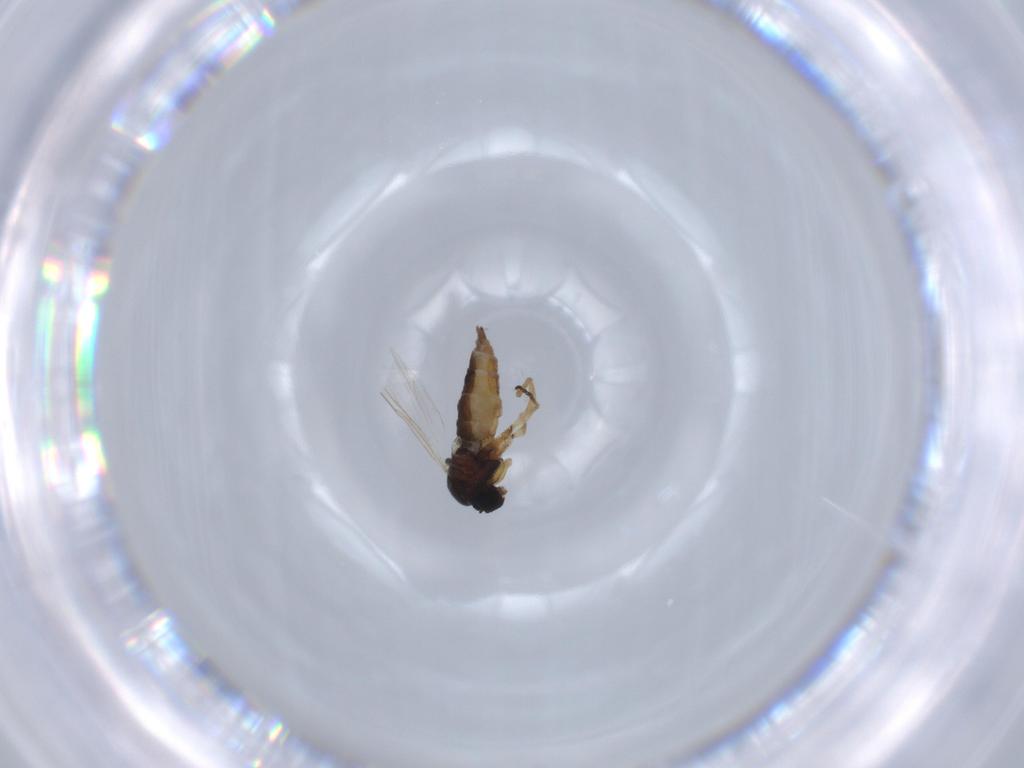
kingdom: Animalia
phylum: Arthropoda
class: Insecta
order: Diptera
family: Sciaridae
